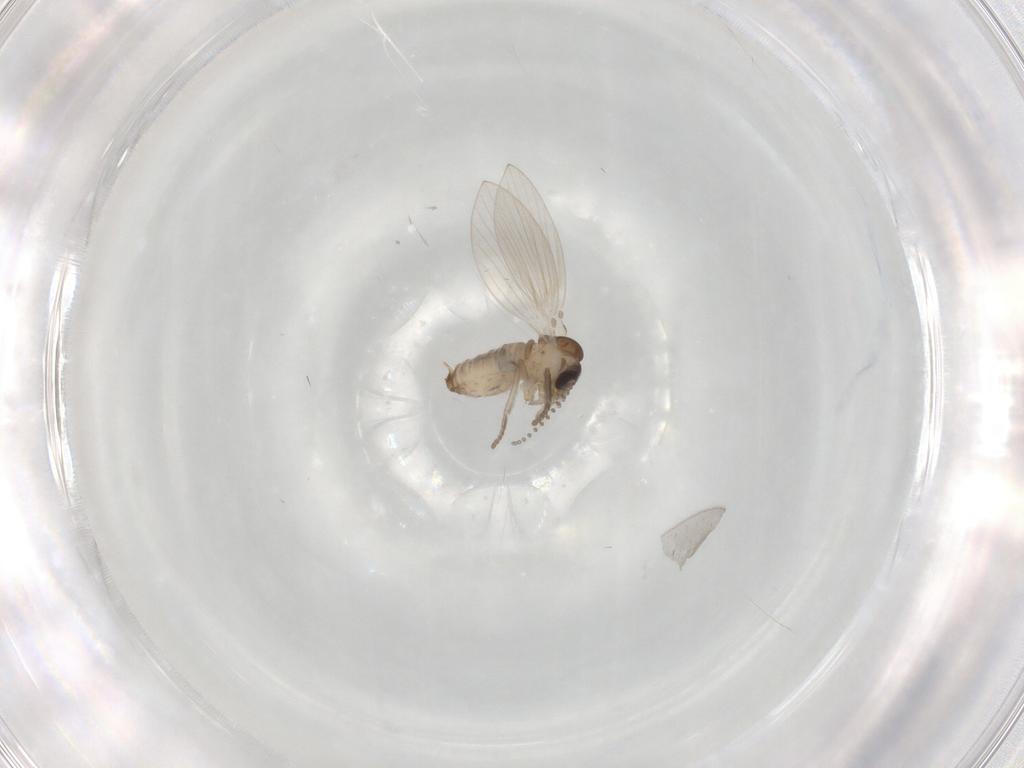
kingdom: Animalia
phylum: Arthropoda
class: Insecta
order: Diptera
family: Psychodidae
